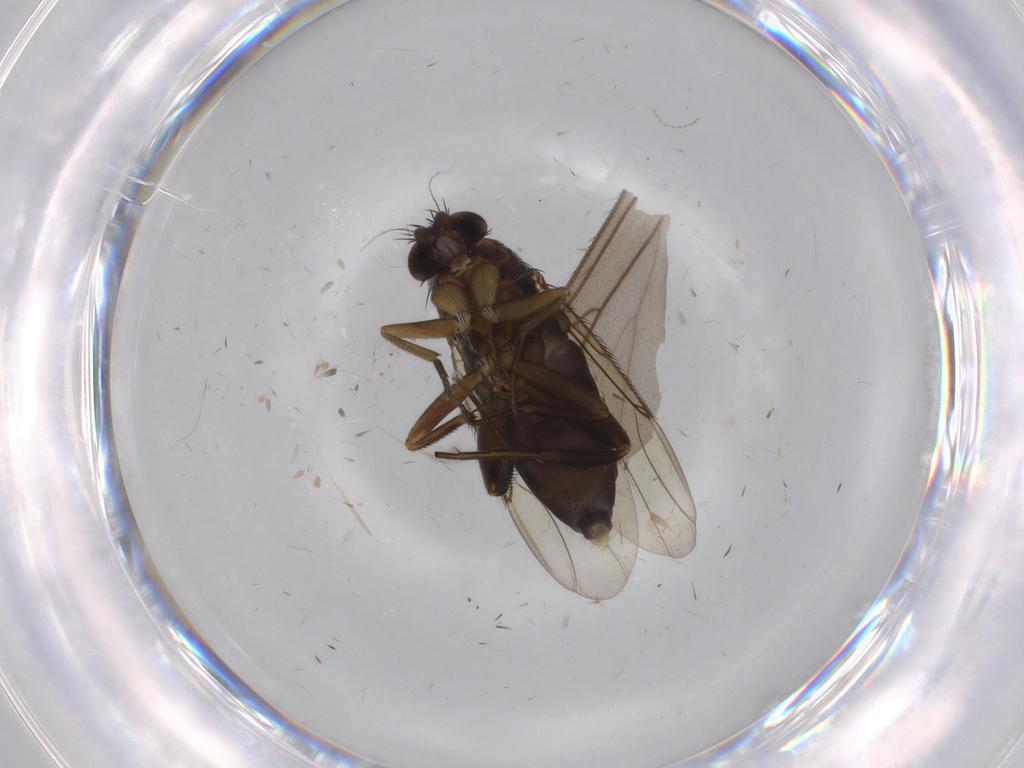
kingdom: Animalia
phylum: Arthropoda
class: Insecta
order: Diptera
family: Phoridae
